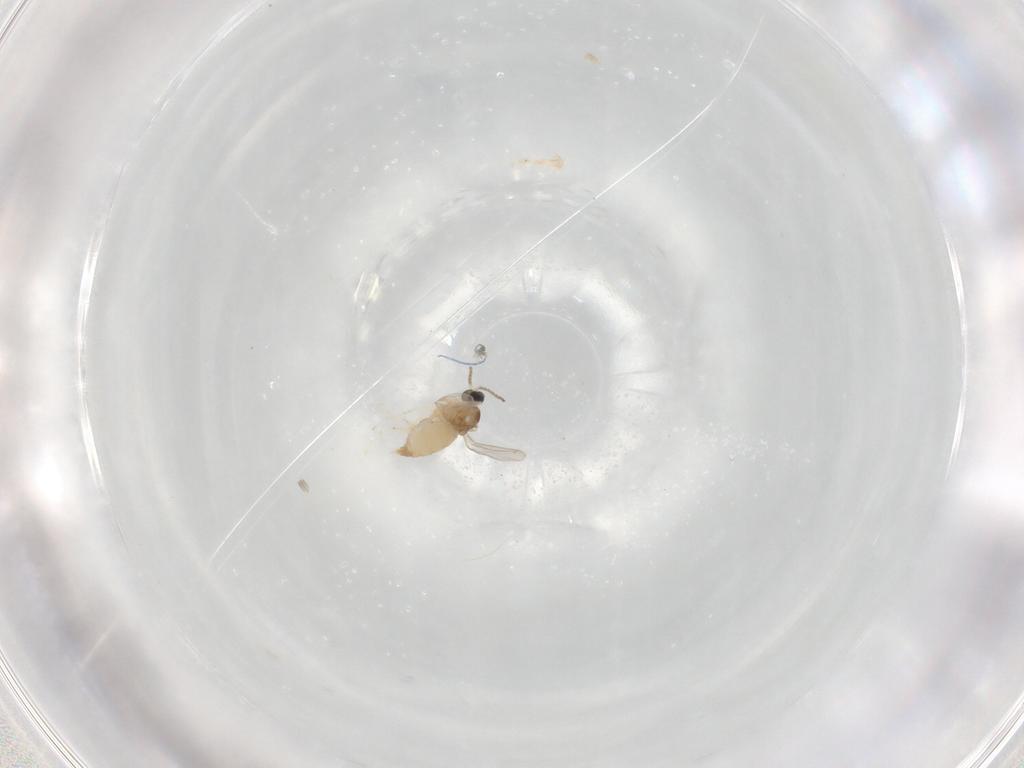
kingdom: Animalia
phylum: Arthropoda
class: Insecta
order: Diptera
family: Cecidomyiidae
